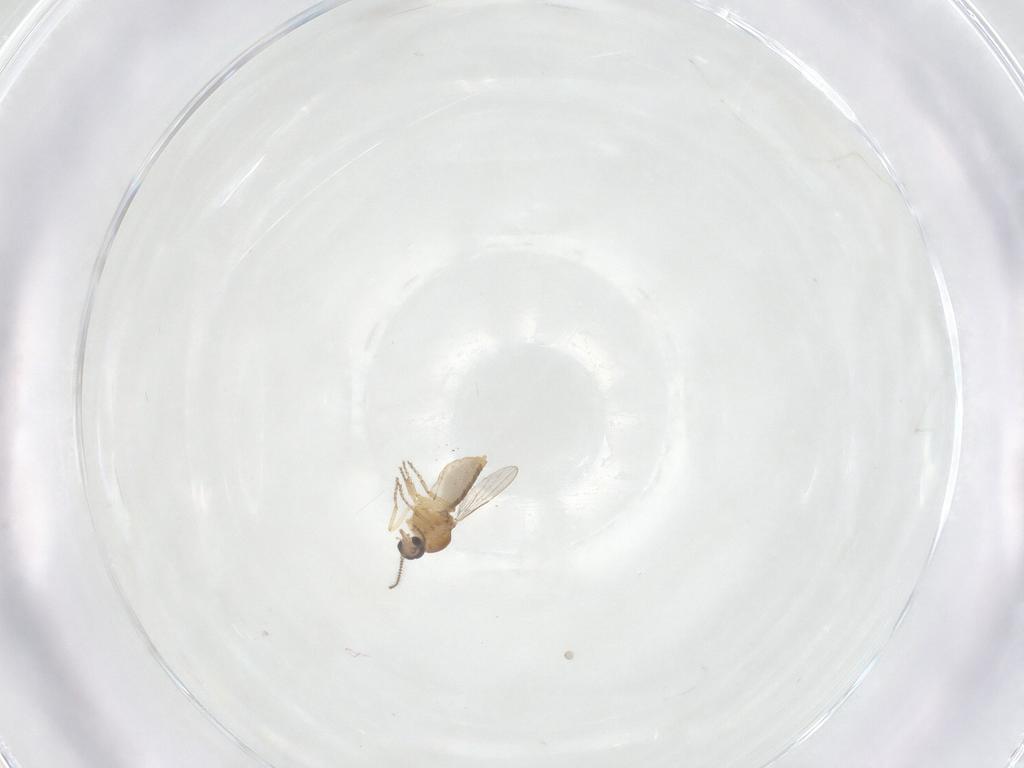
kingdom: Animalia
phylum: Arthropoda
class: Insecta
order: Diptera
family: Ceratopogonidae
